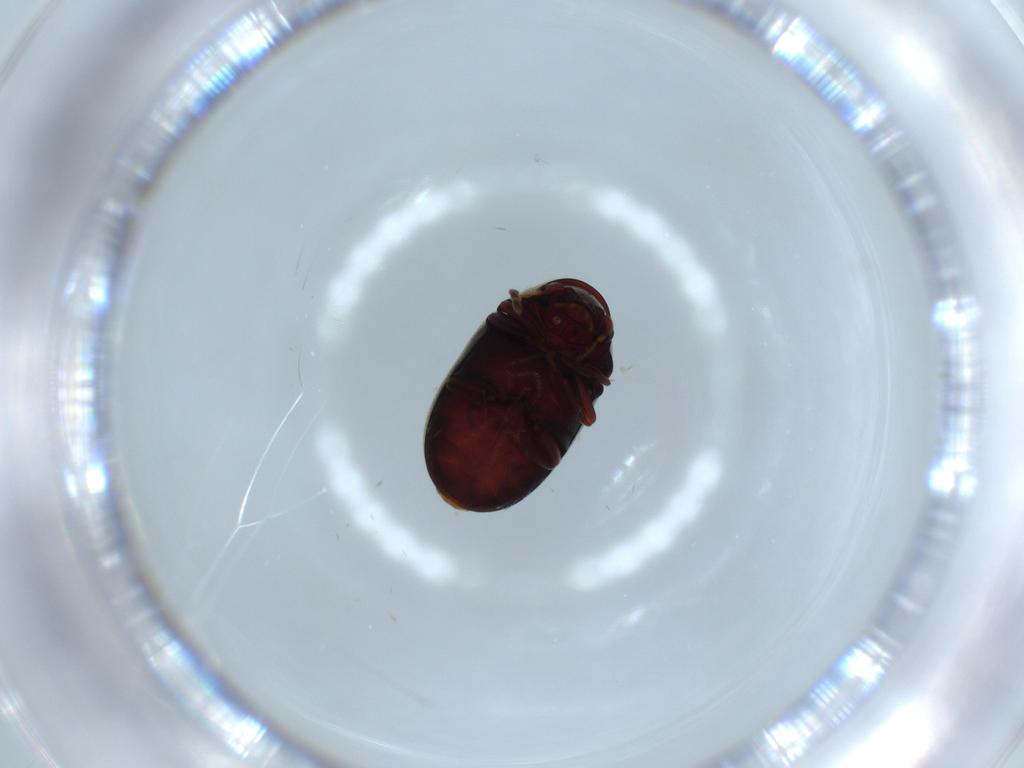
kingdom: Animalia
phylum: Arthropoda
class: Insecta
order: Coleoptera
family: Ptinidae
